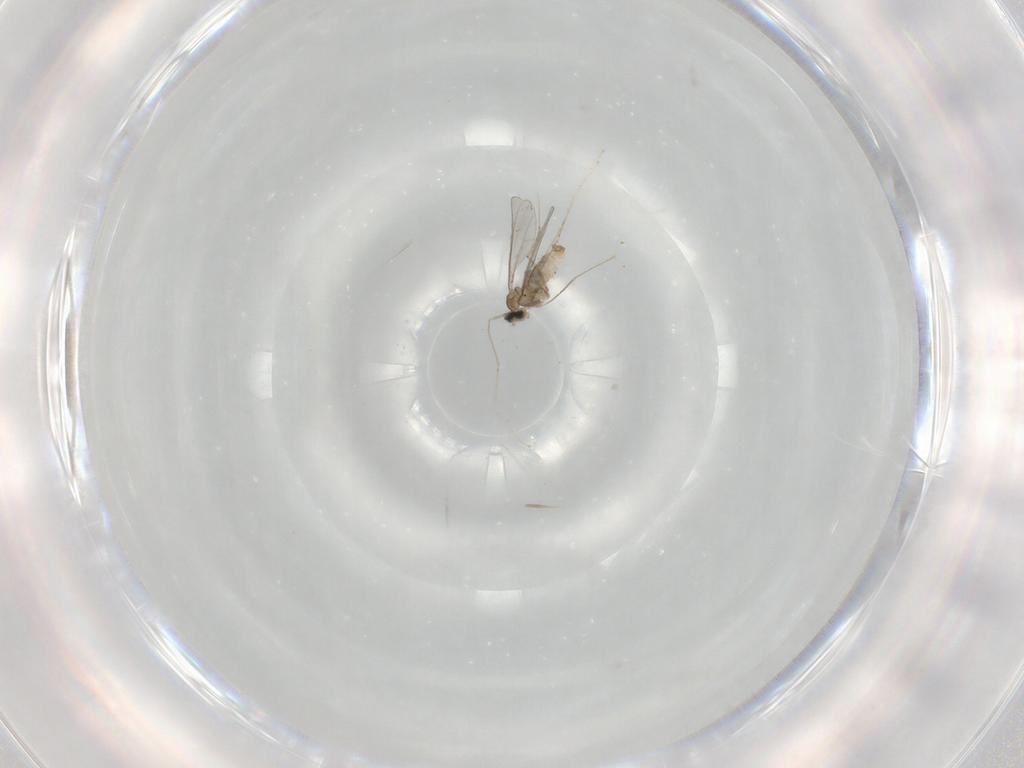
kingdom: Animalia
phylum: Arthropoda
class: Insecta
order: Diptera
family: Cecidomyiidae
